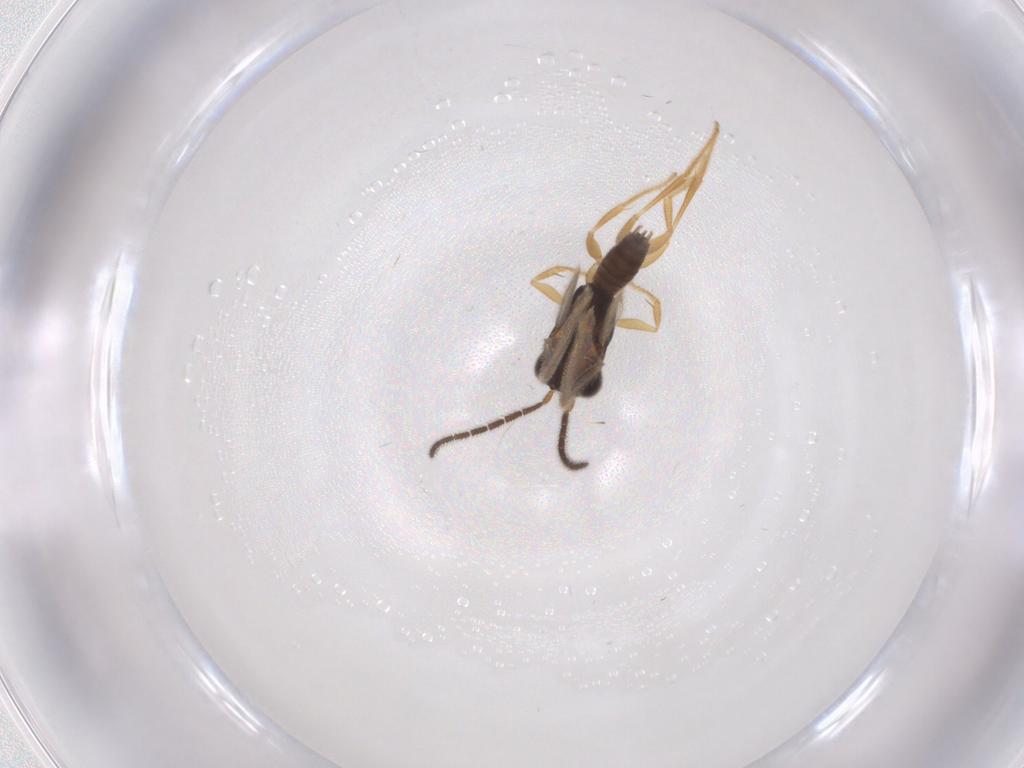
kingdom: Animalia
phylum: Arthropoda
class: Insecta
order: Hymenoptera
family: Dryinidae
